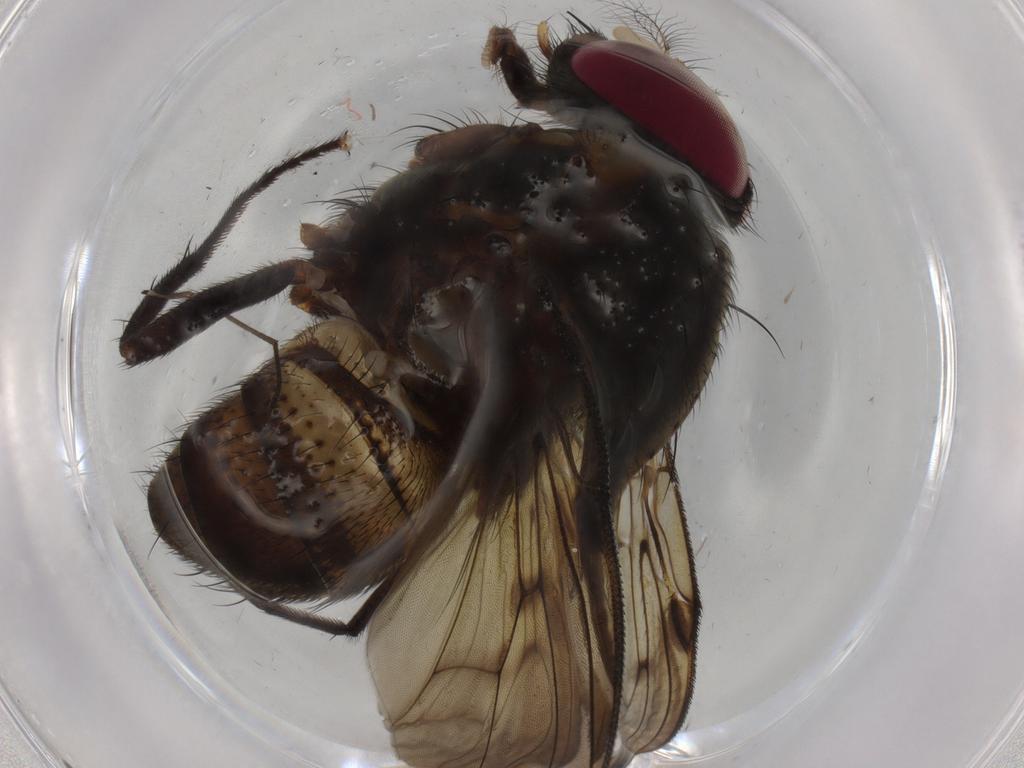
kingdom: Animalia
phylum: Arthropoda
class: Insecta
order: Diptera
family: Muscidae
